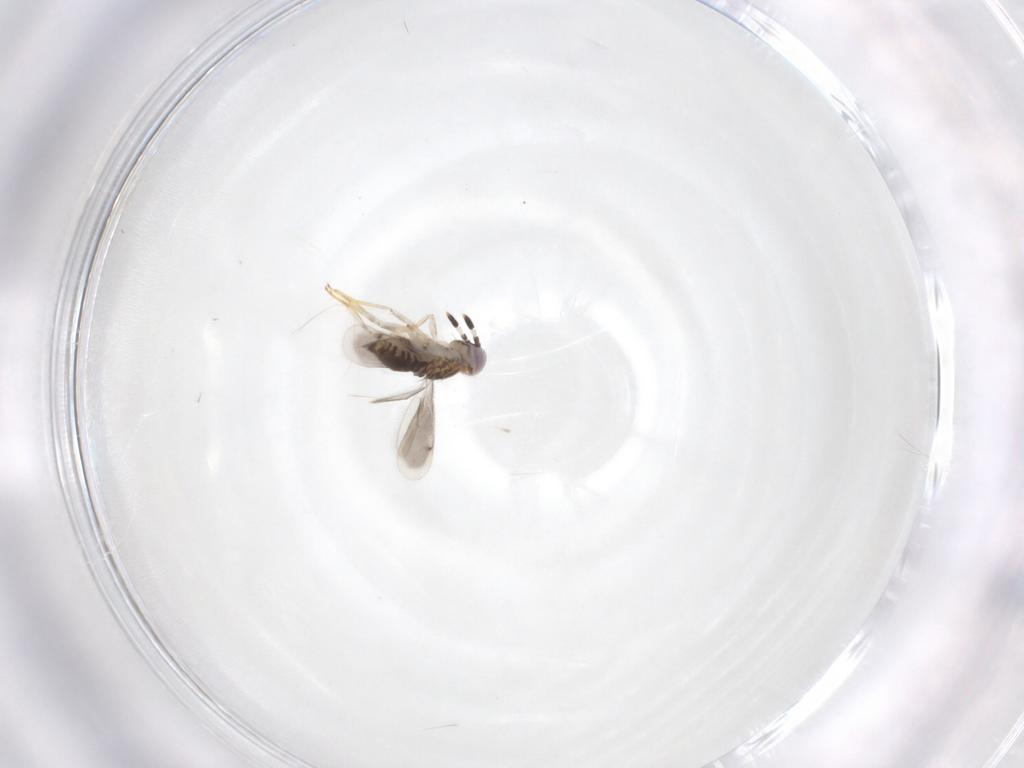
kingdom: Animalia
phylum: Arthropoda
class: Insecta
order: Hymenoptera
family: Aphelinidae
